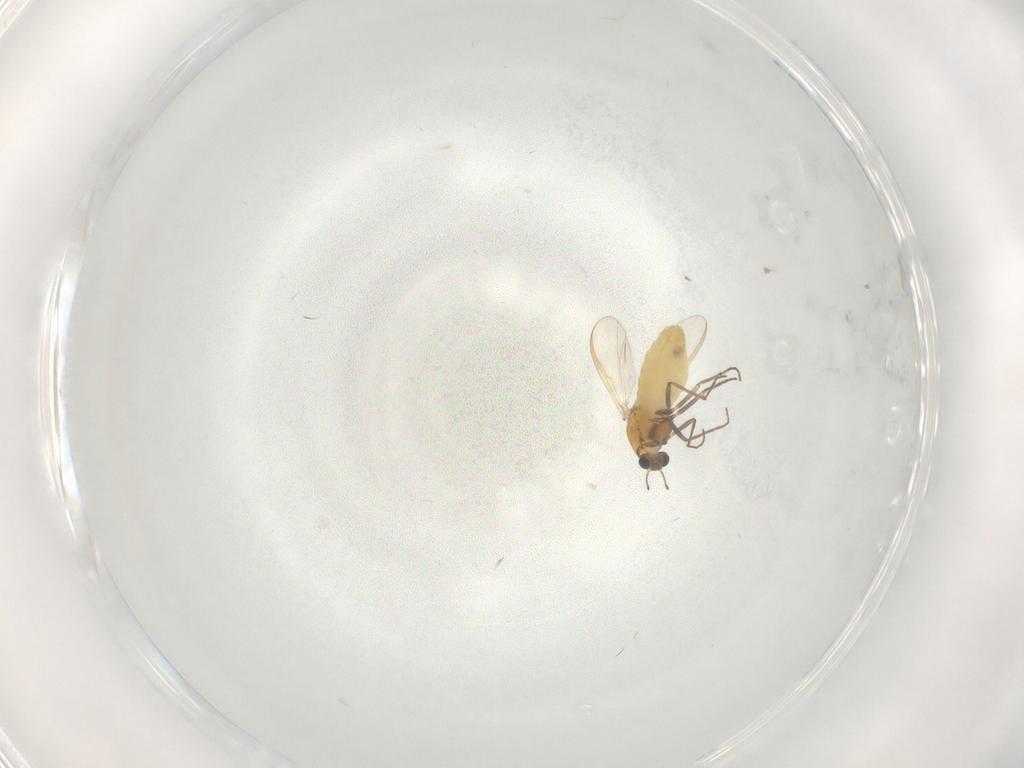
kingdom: Animalia
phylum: Arthropoda
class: Insecta
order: Diptera
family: Chironomidae
